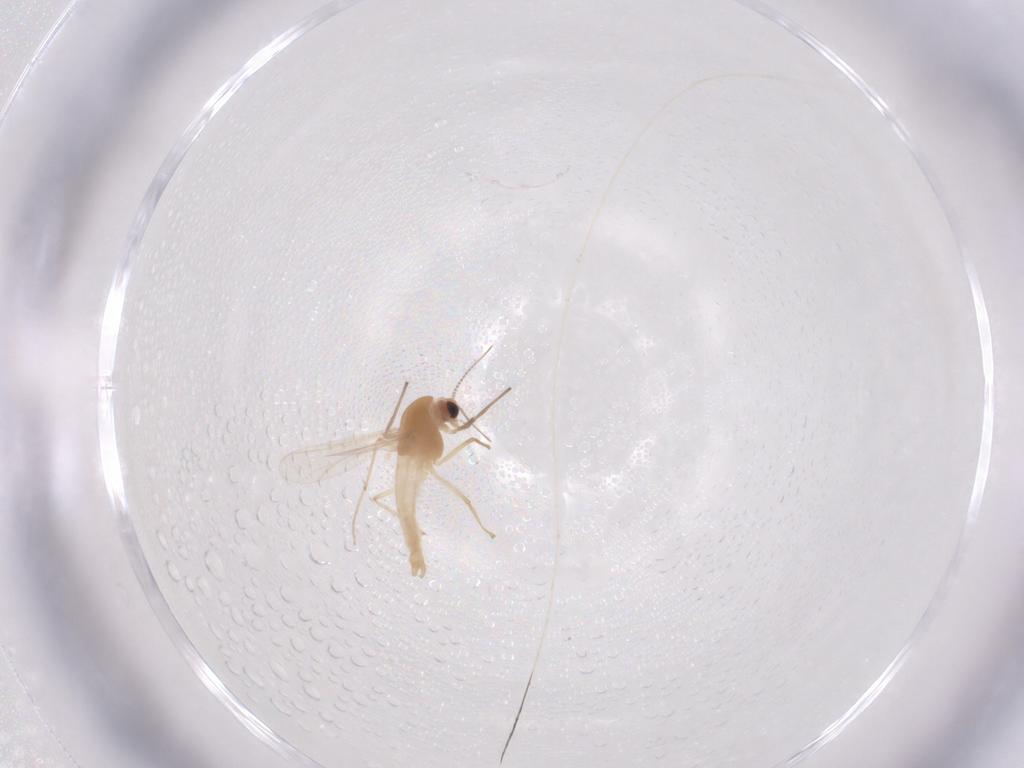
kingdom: Animalia
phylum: Arthropoda
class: Insecta
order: Diptera
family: Chironomidae
